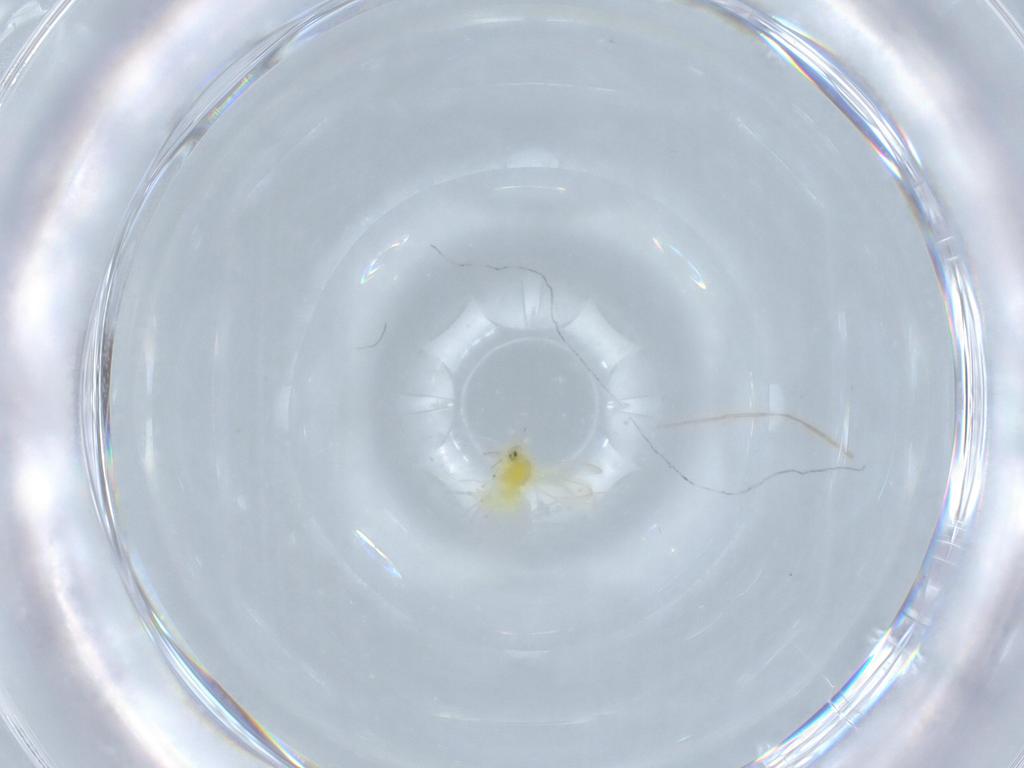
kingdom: Animalia
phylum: Arthropoda
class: Insecta
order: Hemiptera
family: Aleyrodidae
